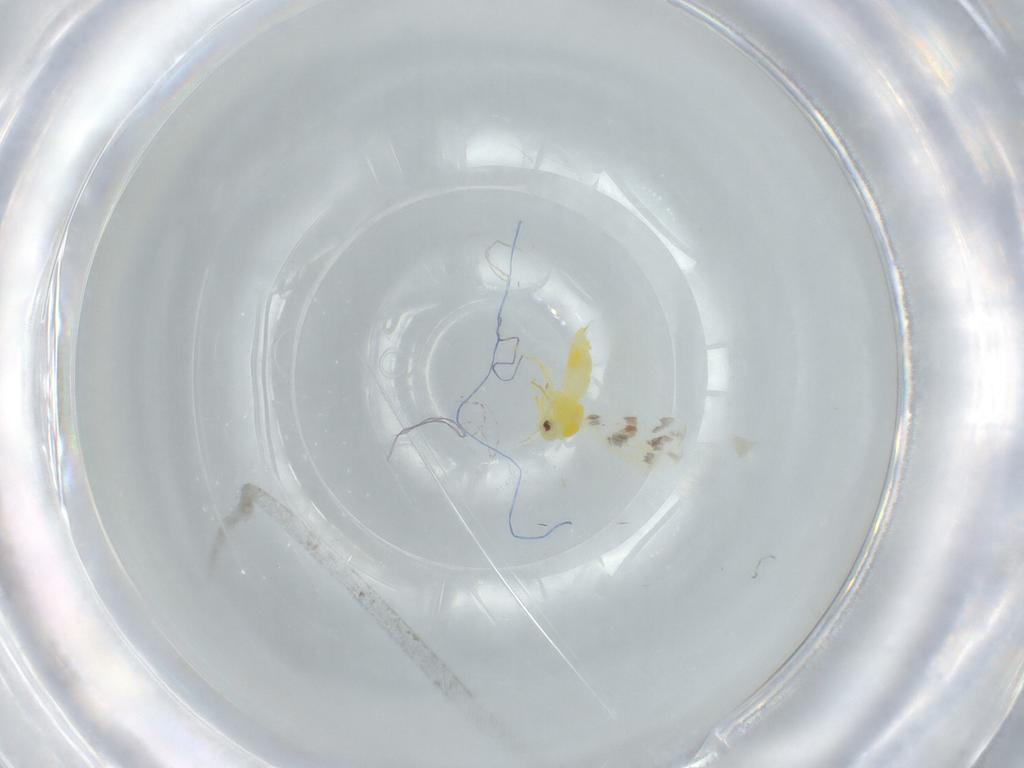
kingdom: Animalia
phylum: Arthropoda
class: Insecta
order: Hemiptera
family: Aleyrodidae
